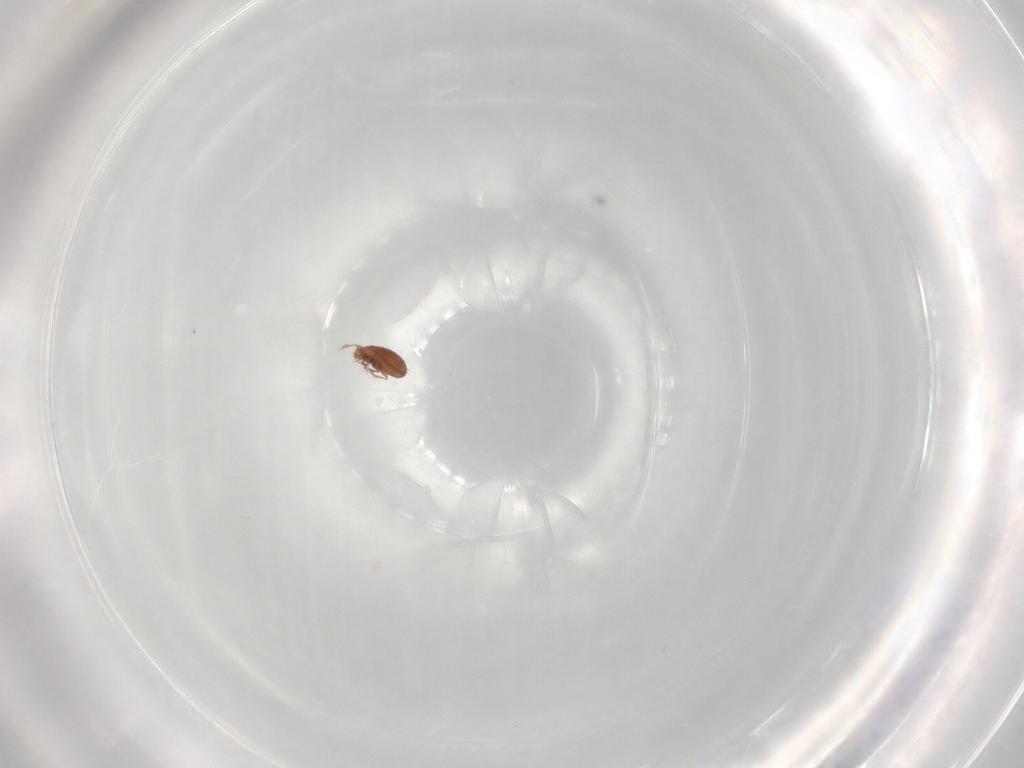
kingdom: Animalia
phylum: Arthropoda
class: Arachnida
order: Sarcoptiformes
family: Oribatulidae
